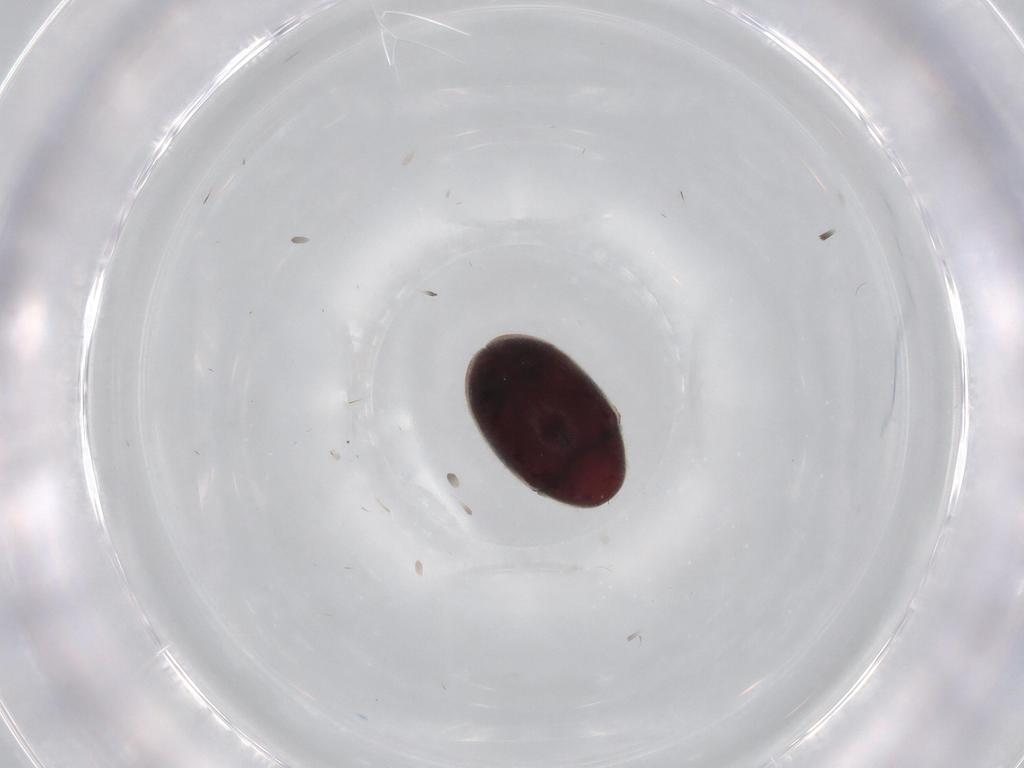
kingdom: Animalia
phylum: Arthropoda
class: Insecta
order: Coleoptera
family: Ptinidae
